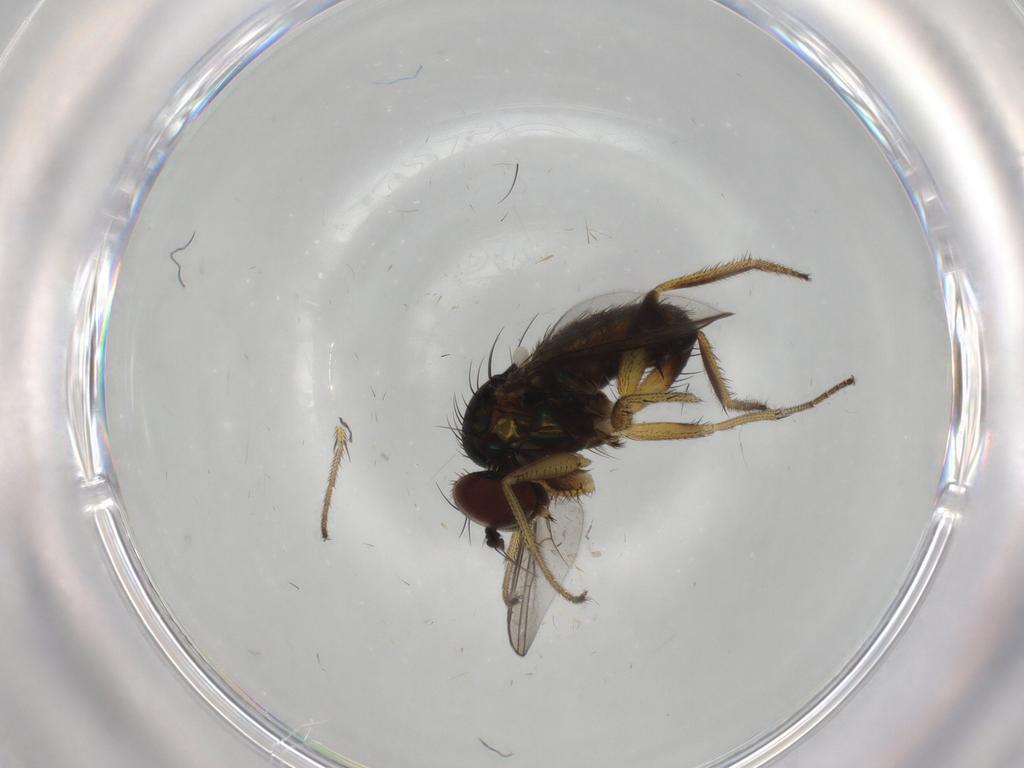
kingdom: Animalia
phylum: Arthropoda
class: Insecta
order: Diptera
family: Dolichopodidae
